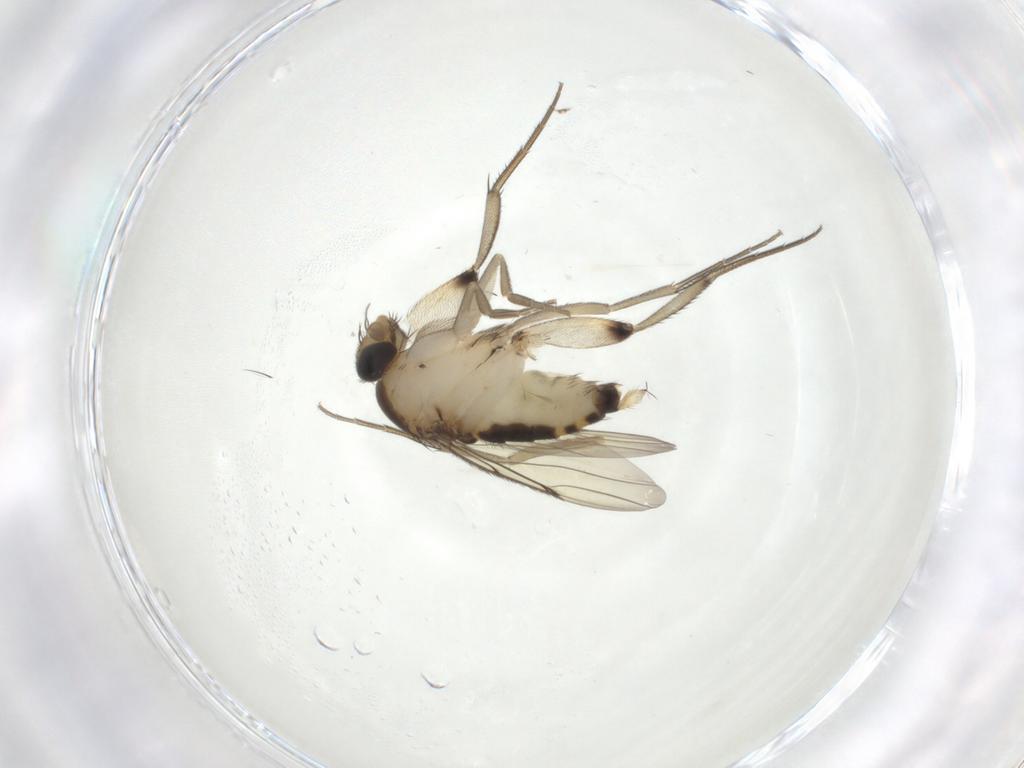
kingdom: Animalia
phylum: Arthropoda
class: Insecta
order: Diptera
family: Phoridae
